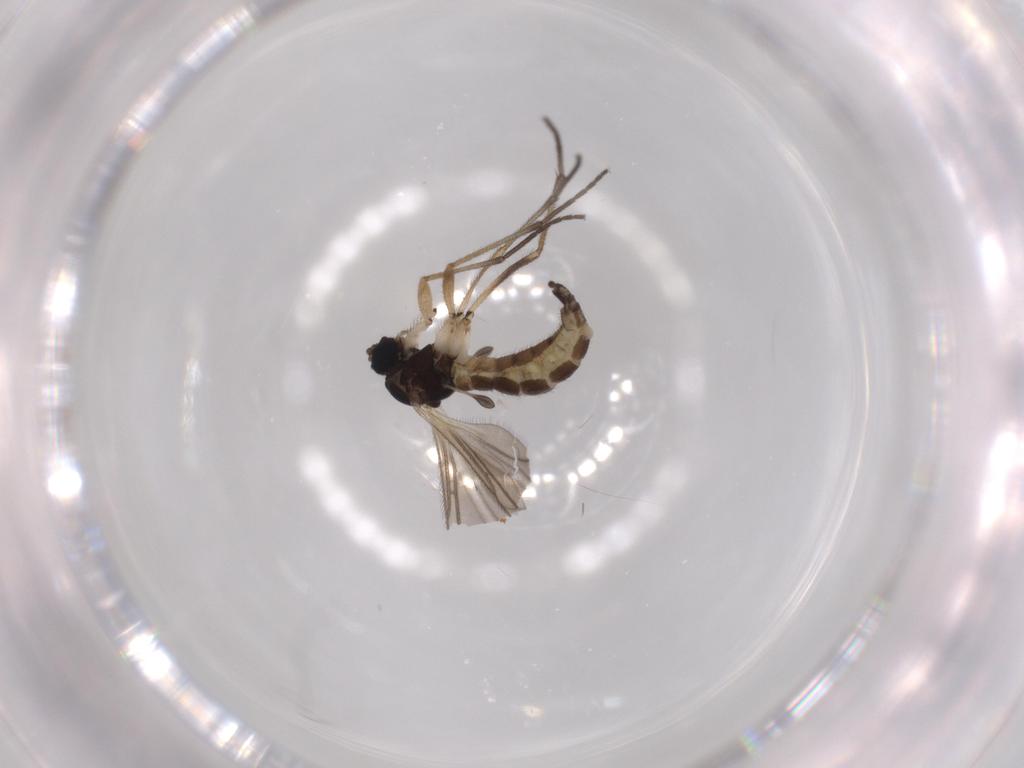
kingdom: Animalia
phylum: Arthropoda
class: Insecta
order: Diptera
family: Sciaridae
